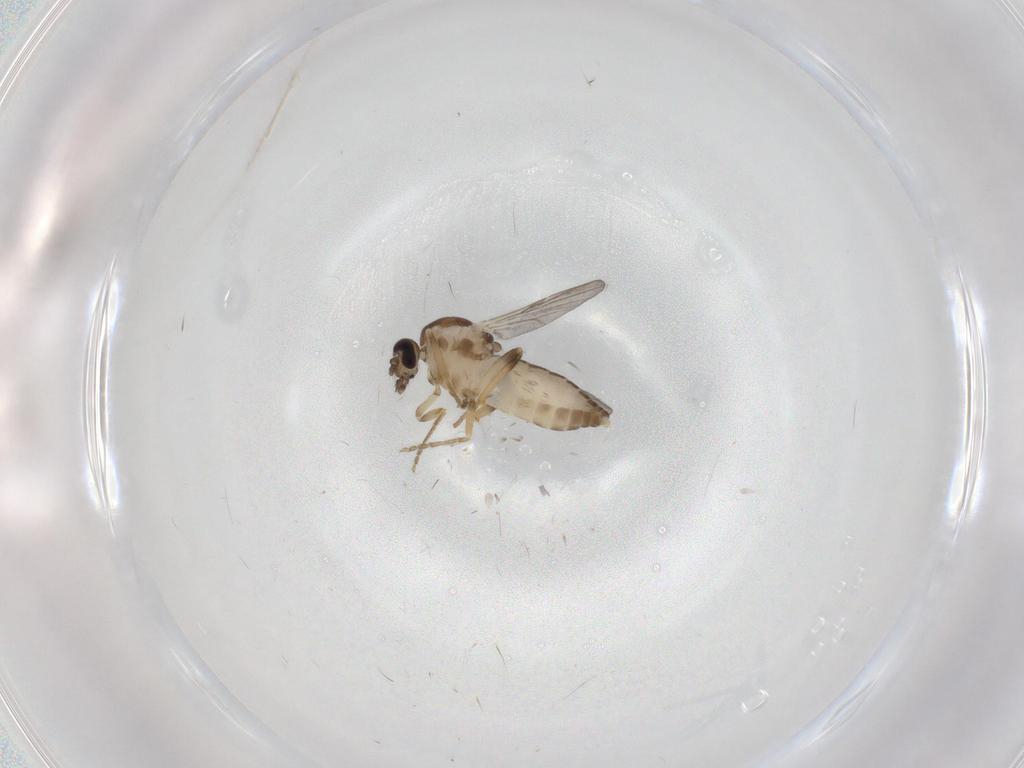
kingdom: Animalia
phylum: Arthropoda
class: Insecta
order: Diptera
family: Ceratopogonidae
